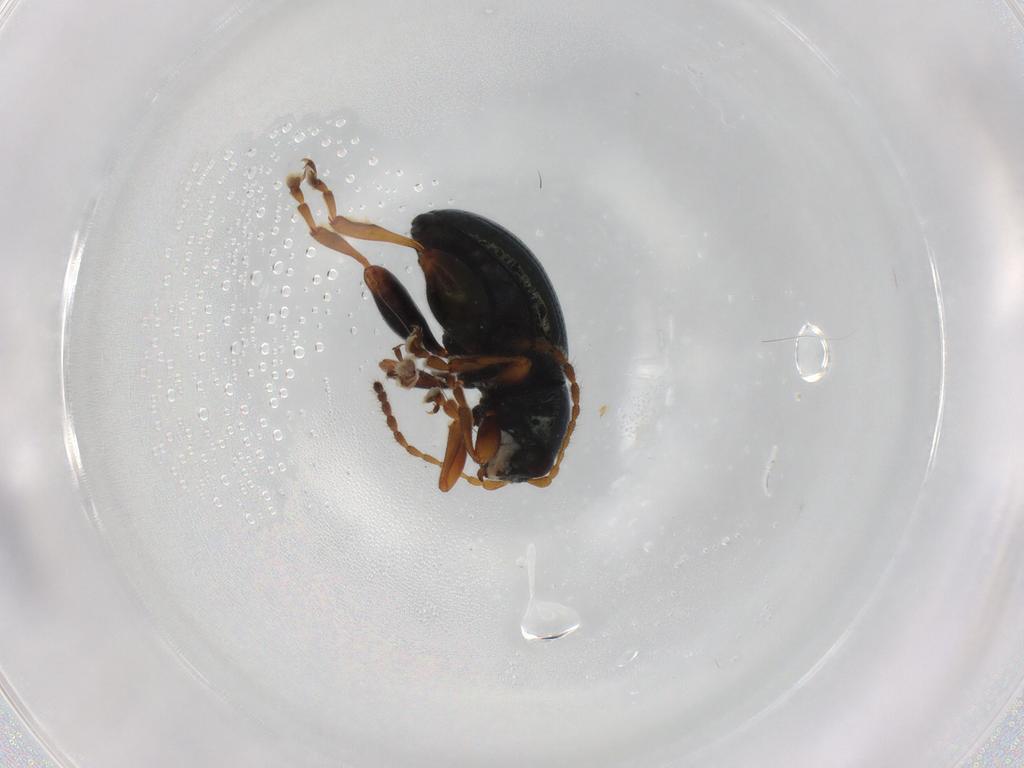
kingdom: Animalia
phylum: Arthropoda
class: Insecta
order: Coleoptera
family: Chrysomelidae
